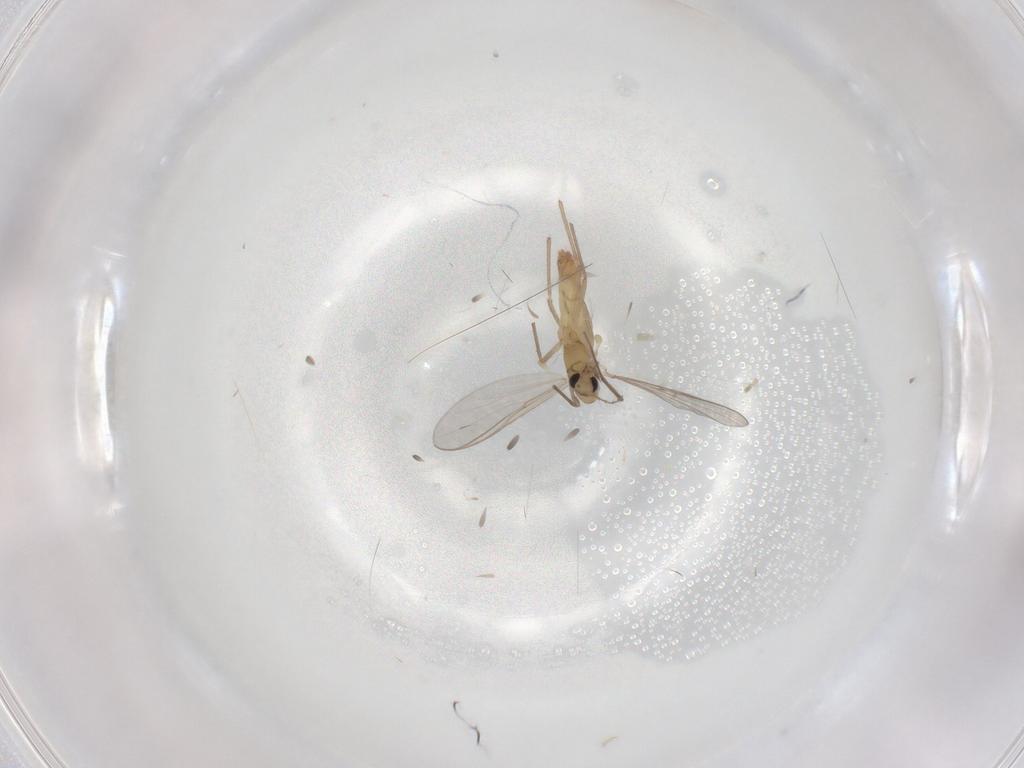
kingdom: Animalia
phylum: Arthropoda
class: Insecta
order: Diptera
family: Chironomidae
